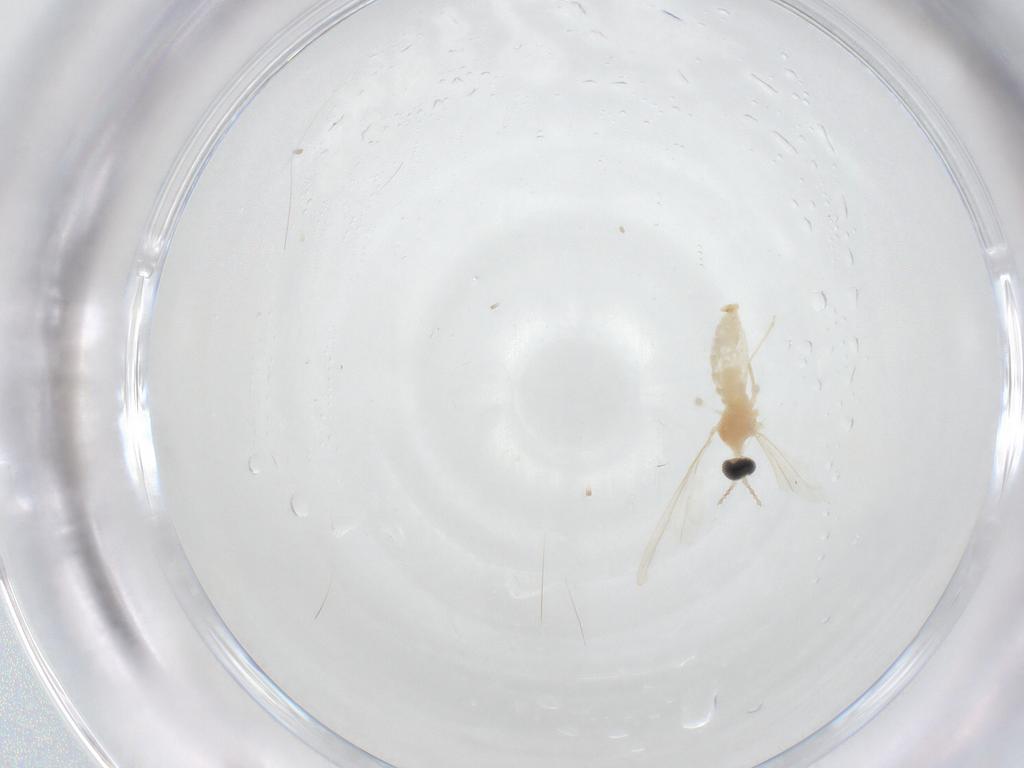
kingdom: Animalia
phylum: Arthropoda
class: Insecta
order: Diptera
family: Cecidomyiidae
